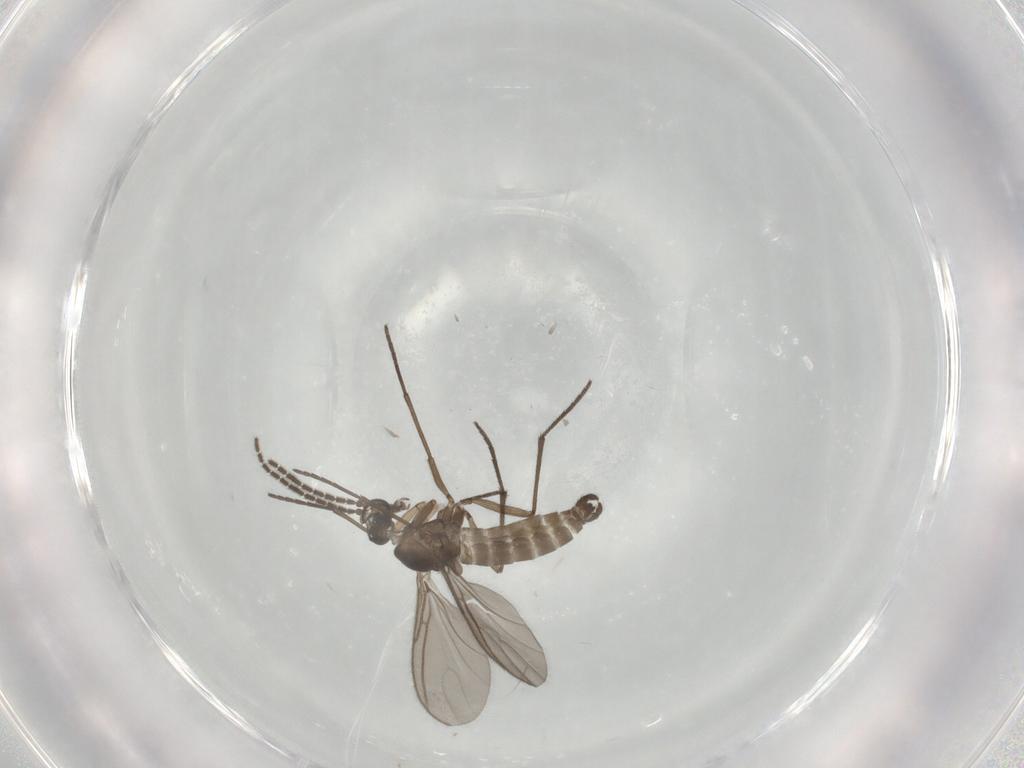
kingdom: Animalia
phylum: Arthropoda
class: Insecta
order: Diptera
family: Sciaridae
